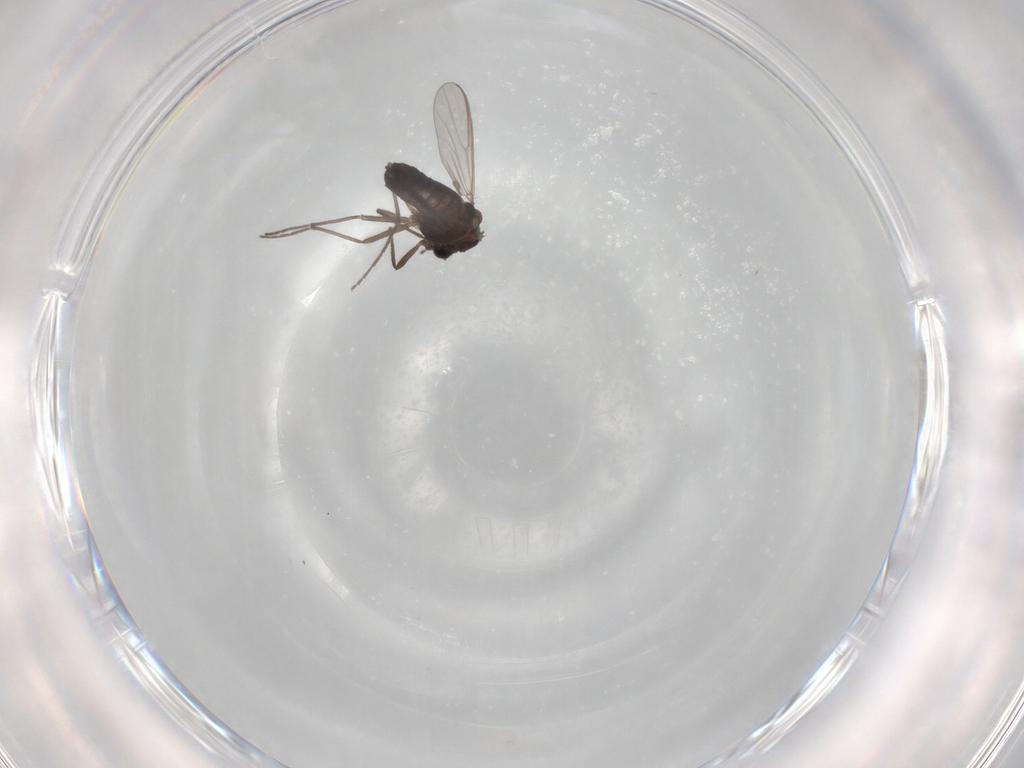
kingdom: Animalia
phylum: Arthropoda
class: Insecta
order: Diptera
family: Chironomidae
